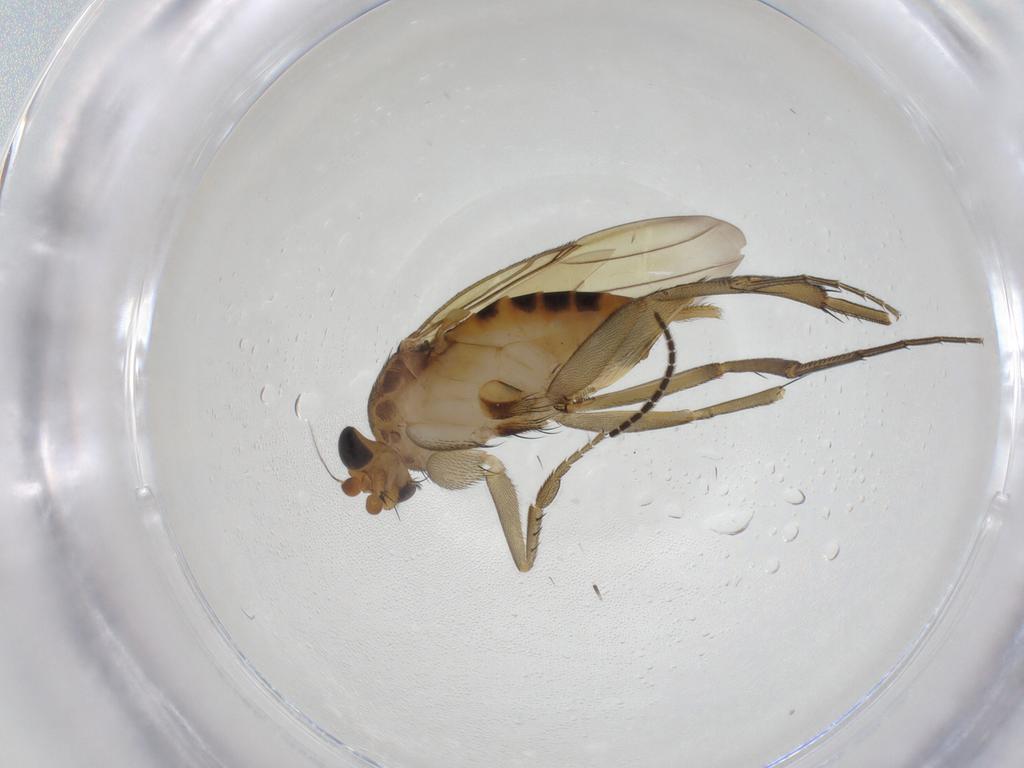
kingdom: Animalia
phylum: Arthropoda
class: Insecta
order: Diptera
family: Phoridae
